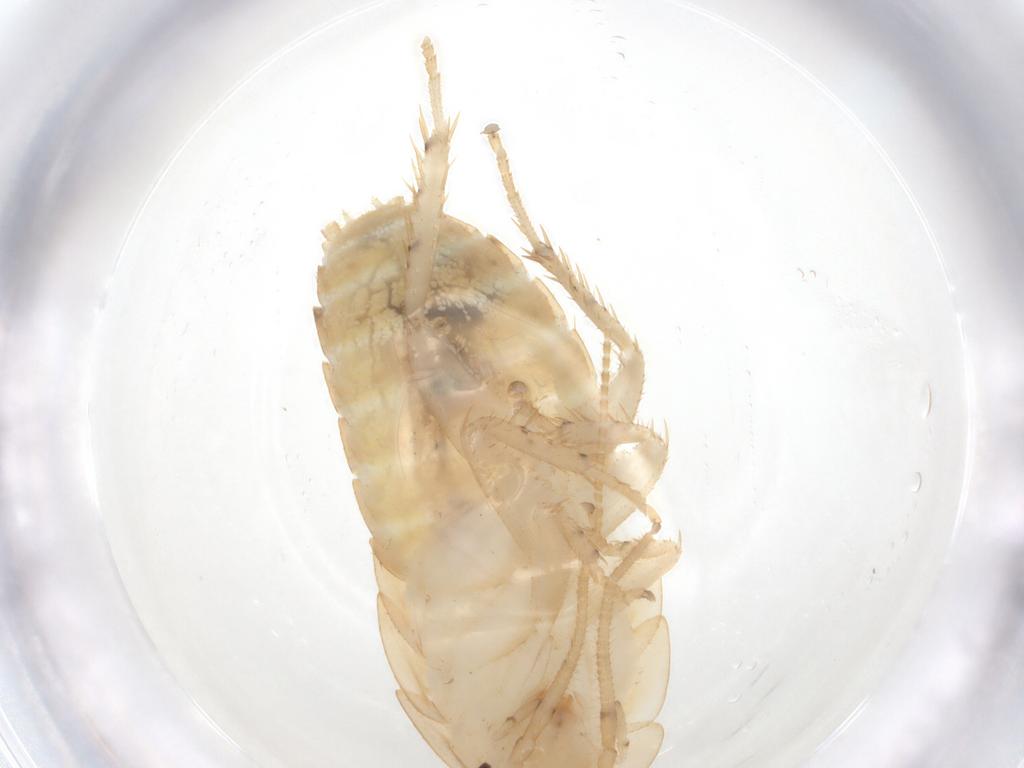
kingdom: Animalia
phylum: Arthropoda
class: Insecta
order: Blattodea
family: Ectobiidae
